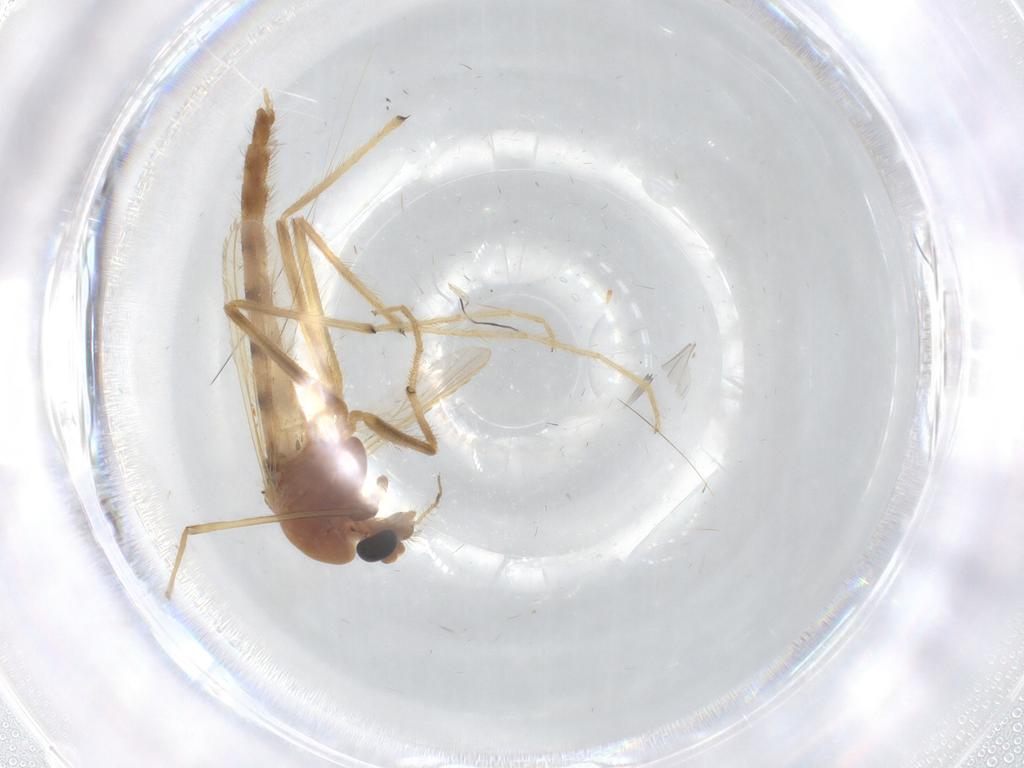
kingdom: Animalia
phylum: Arthropoda
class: Insecta
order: Diptera
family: Chironomidae
